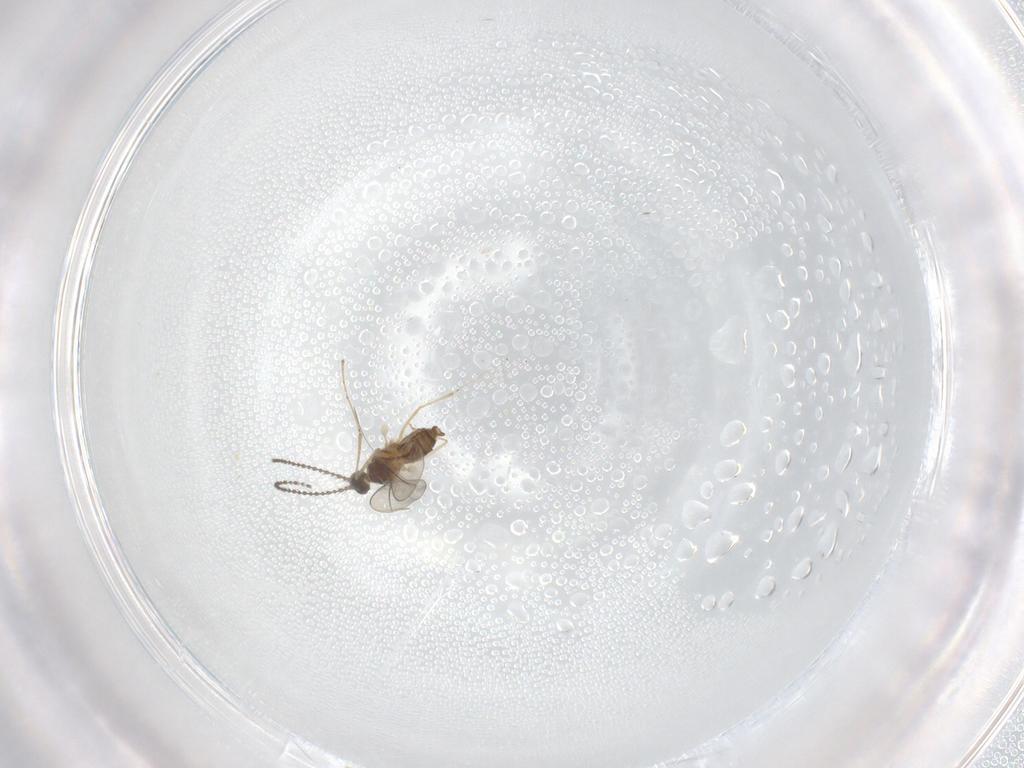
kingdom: Animalia
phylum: Arthropoda
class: Insecta
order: Diptera
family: Cecidomyiidae
